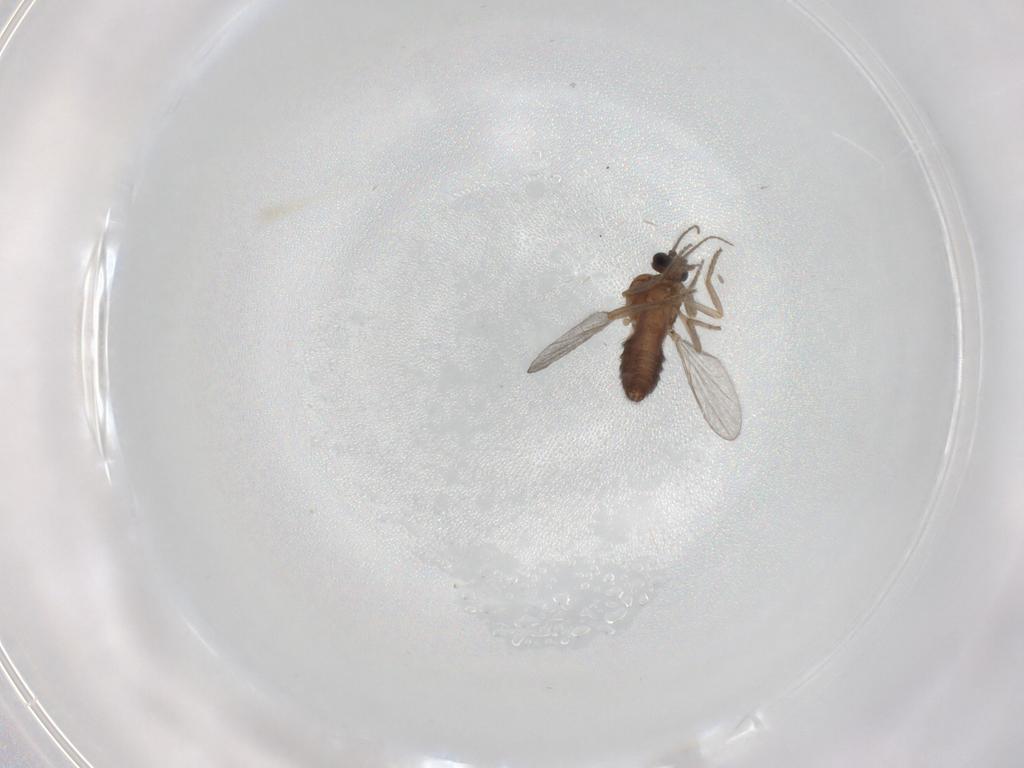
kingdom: Animalia
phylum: Arthropoda
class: Insecta
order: Diptera
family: Ceratopogonidae
